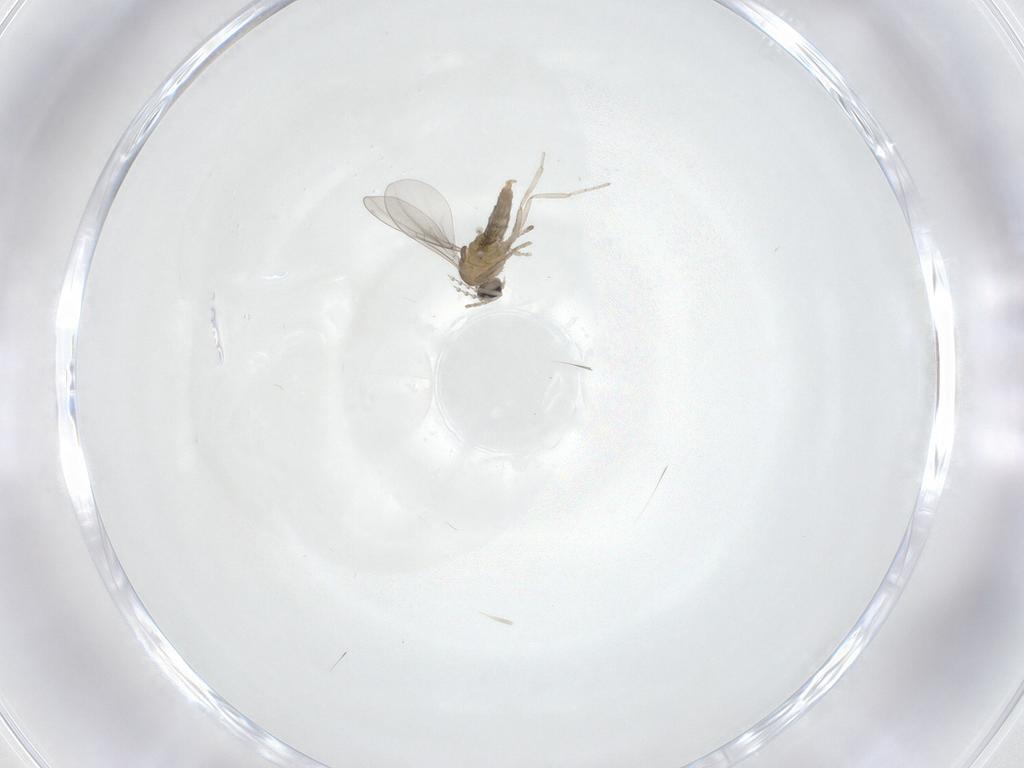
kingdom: Animalia
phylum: Arthropoda
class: Insecta
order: Diptera
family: Cecidomyiidae
